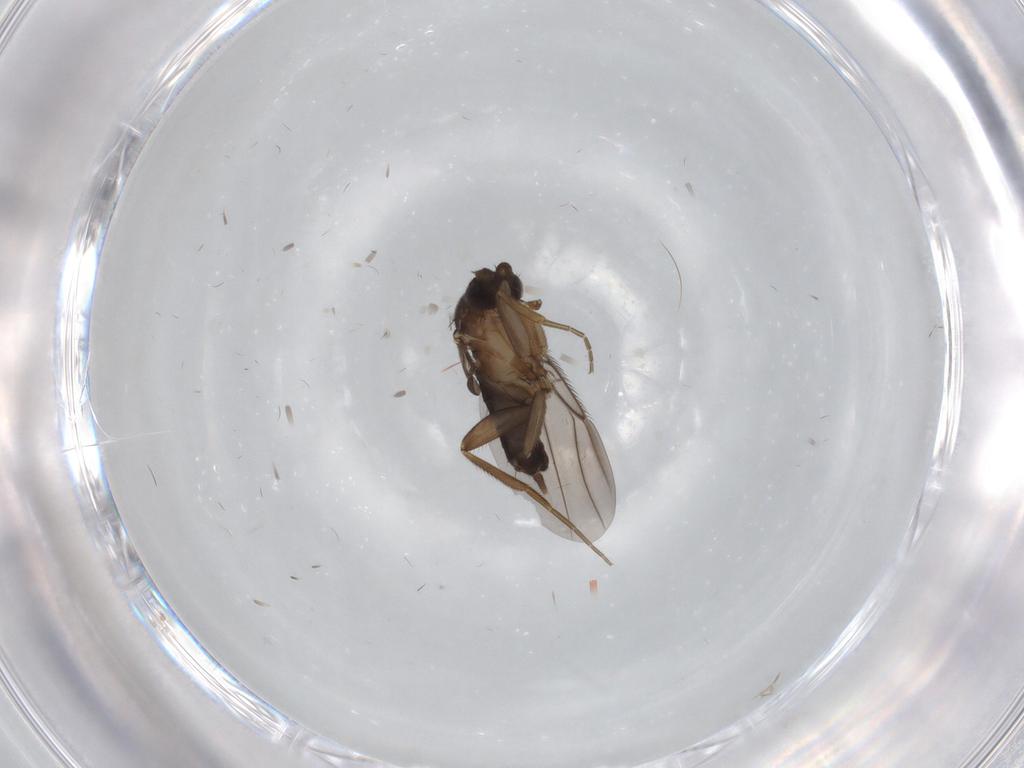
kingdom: Animalia
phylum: Arthropoda
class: Insecta
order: Diptera
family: Phoridae
